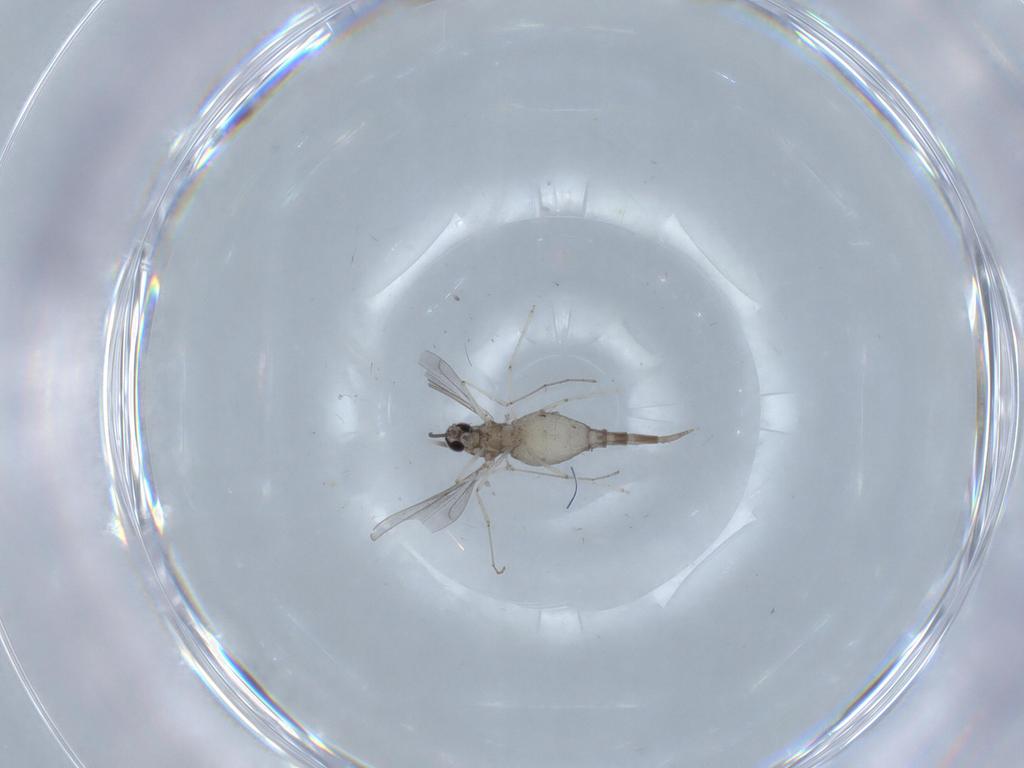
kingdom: Animalia
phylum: Arthropoda
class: Insecta
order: Diptera
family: Cecidomyiidae
